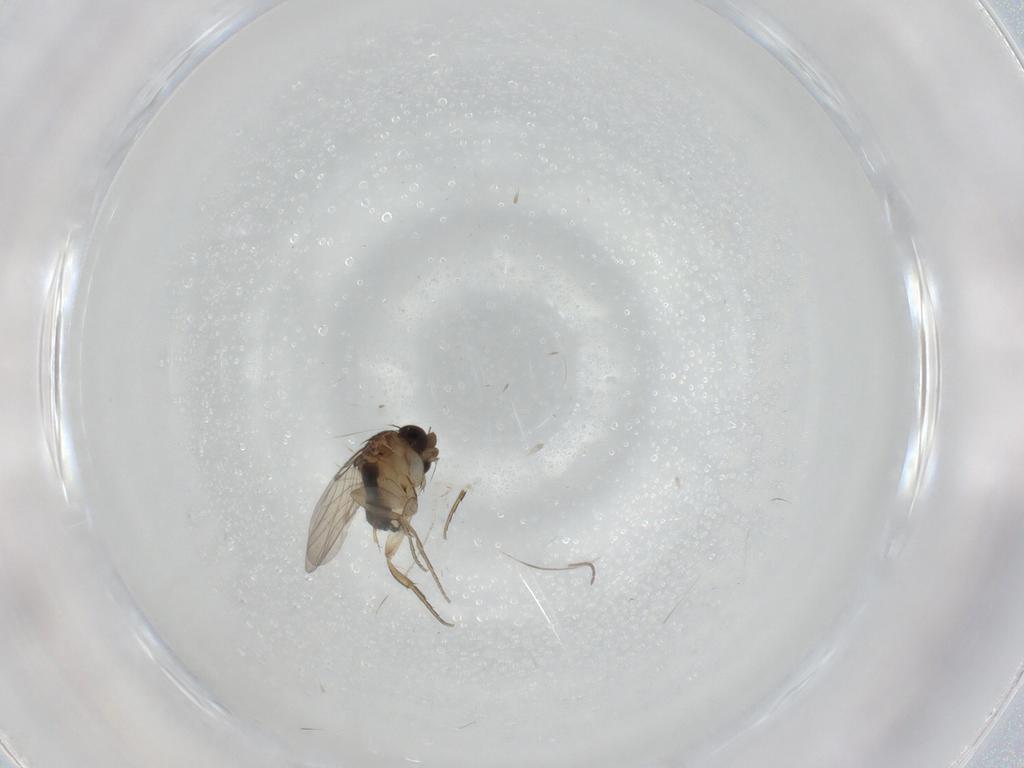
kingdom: Animalia
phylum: Arthropoda
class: Insecta
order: Diptera
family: Phoridae
